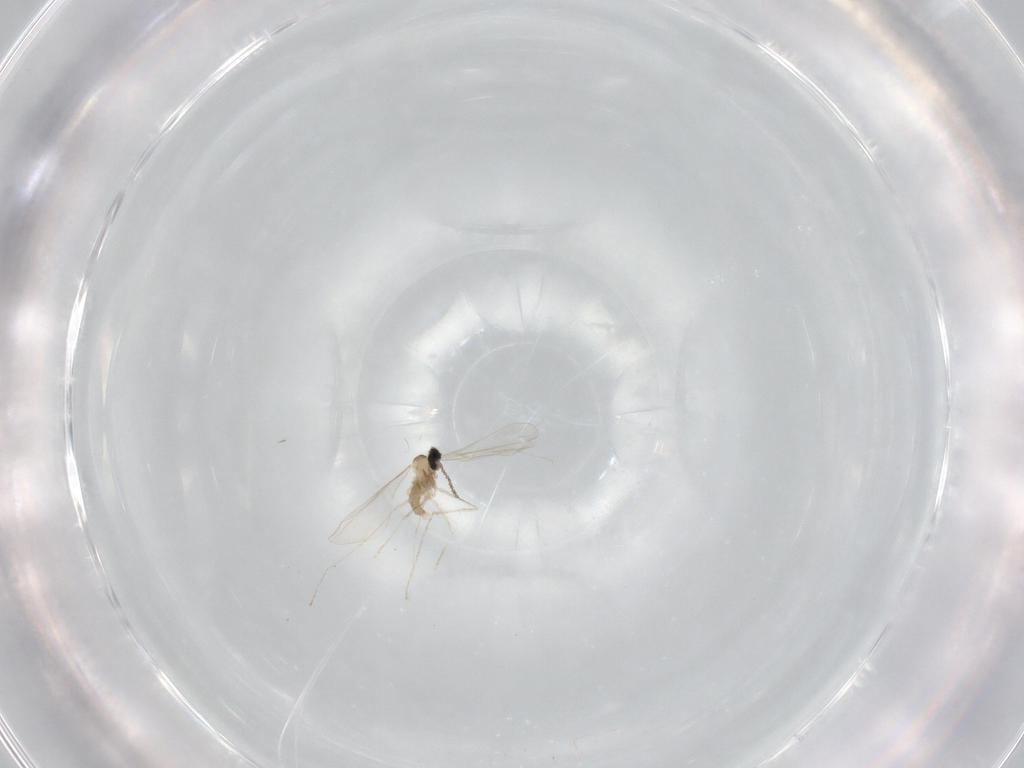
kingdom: Animalia
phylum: Arthropoda
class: Insecta
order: Diptera
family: Cecidomyiidae
